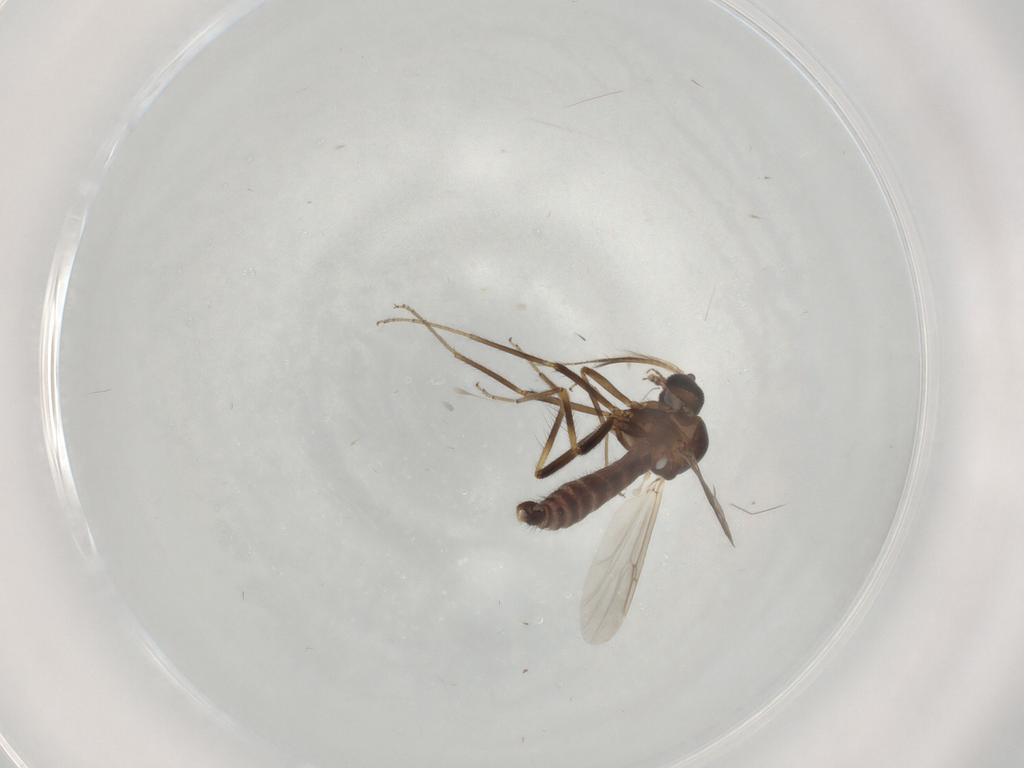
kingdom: Animalia
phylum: Arthropoda
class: Insecta
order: Diptera
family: Ceratopogonidae
